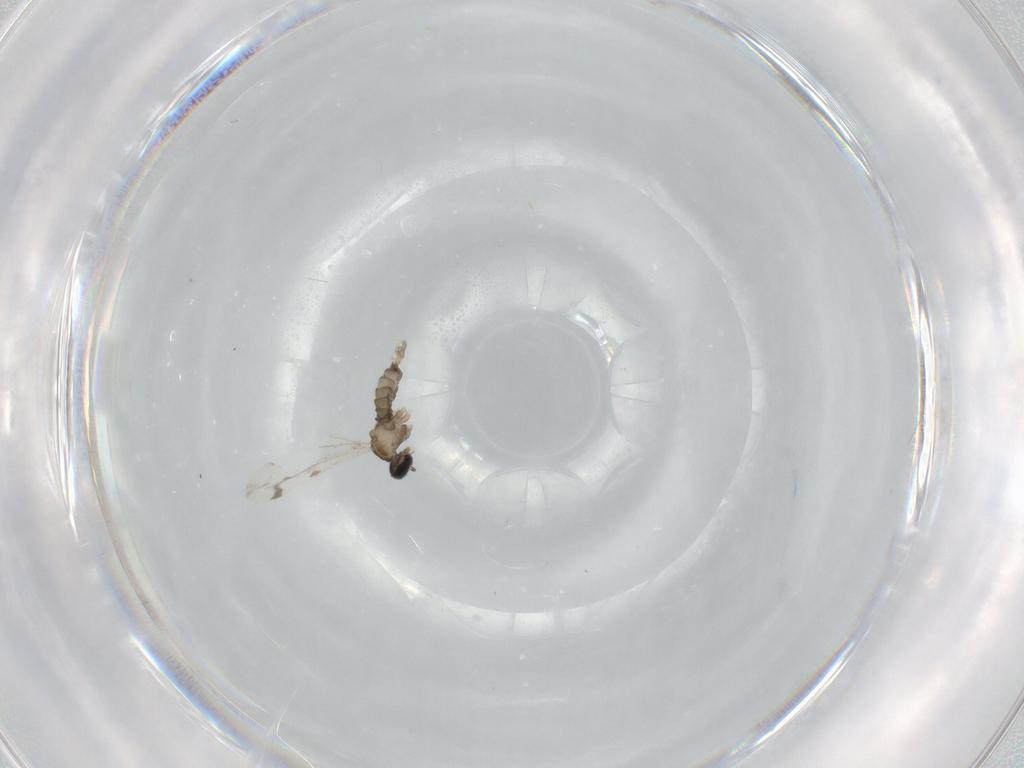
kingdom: Animalia
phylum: Arthropoda
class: Insecta
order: Diptera
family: Cecidomyiidae
